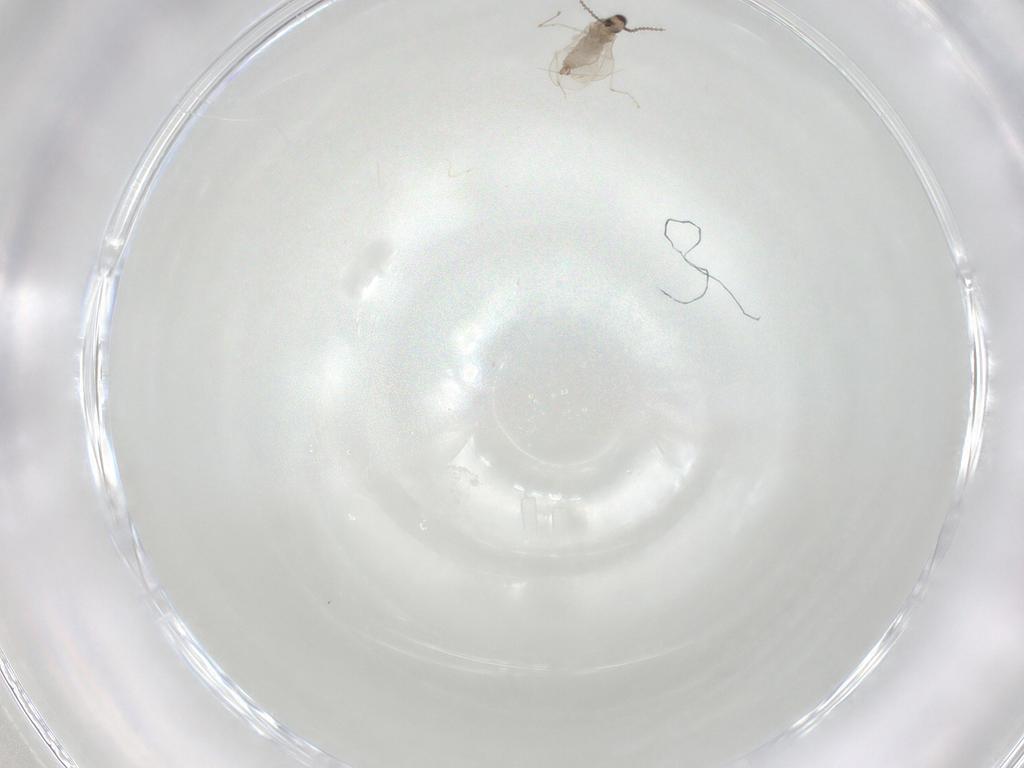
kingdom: Animalia
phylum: Arthropoda
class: Insecta
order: Diptera
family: Cecidomyiidae
